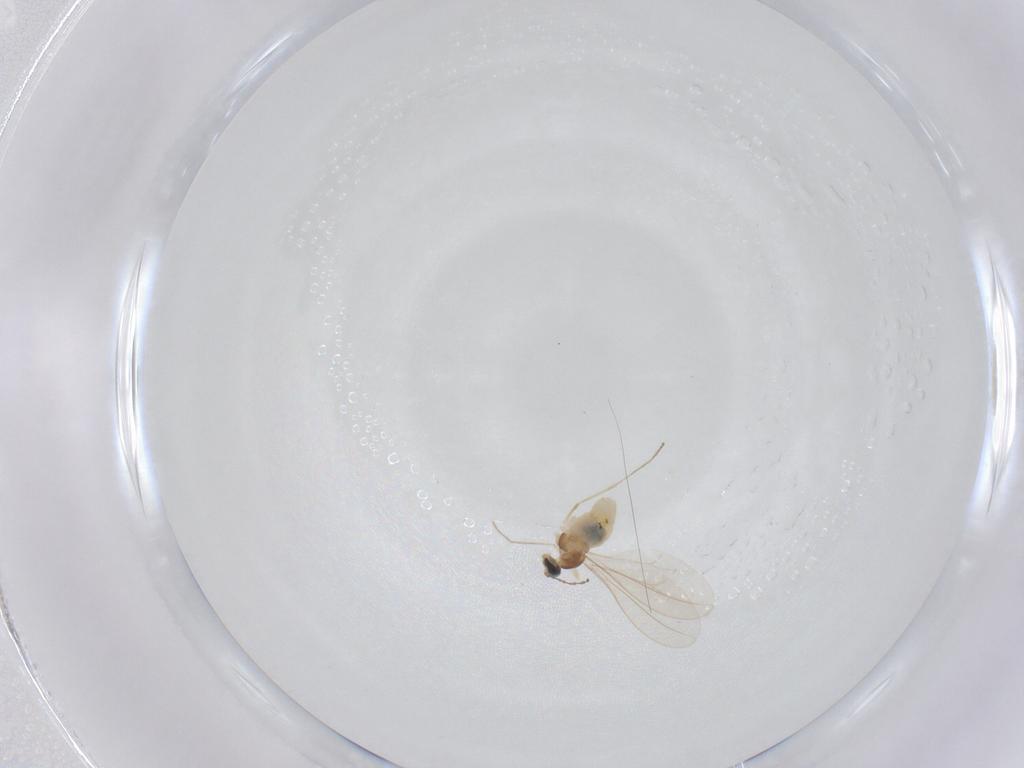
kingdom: Animalia
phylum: Arthropoda
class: Insecta
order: Diptera
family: Cecidomyiidae
